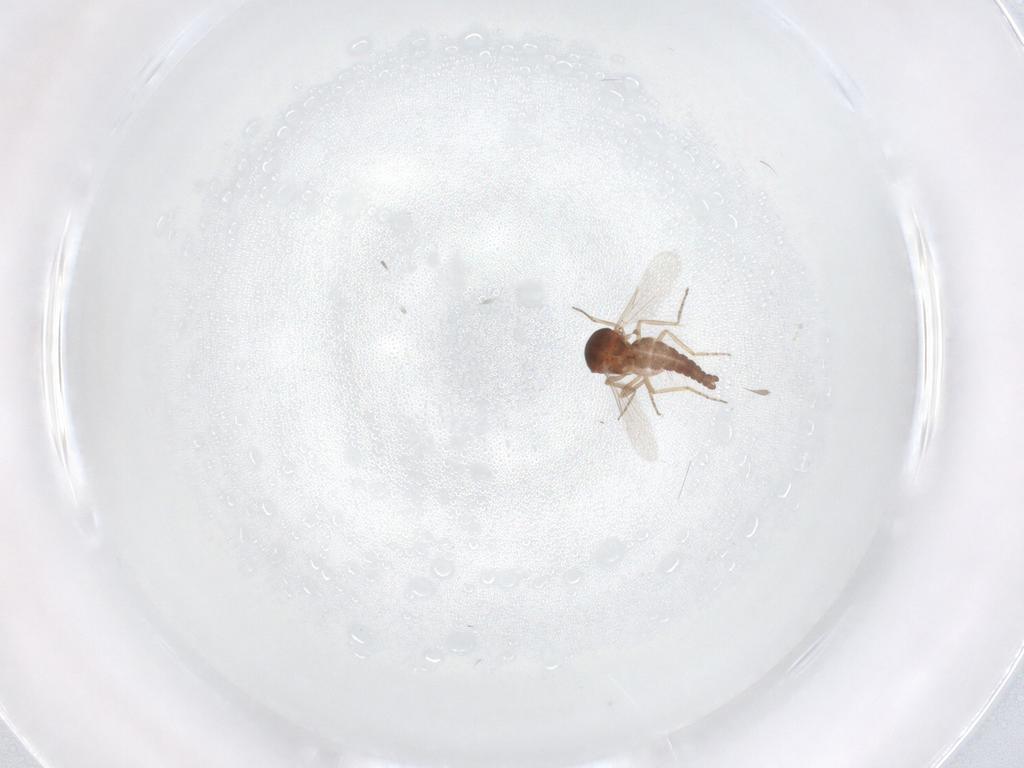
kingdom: Animalia
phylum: Arthropoda
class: Insecta
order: Diptera
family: Ceratopogonidae
